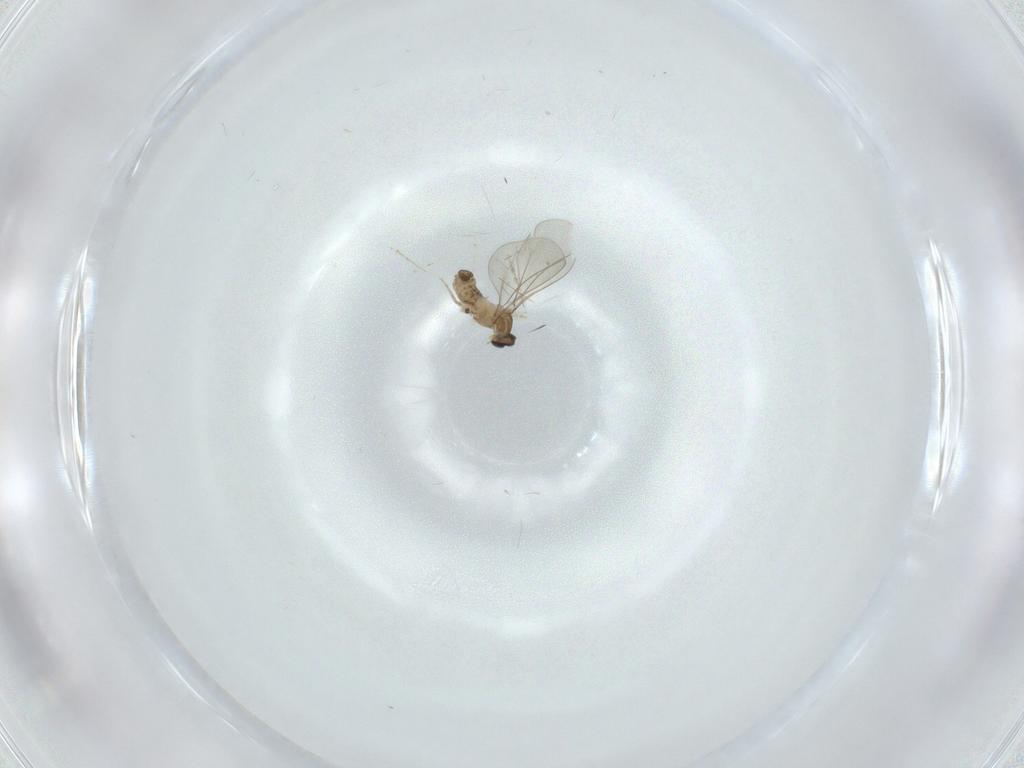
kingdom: Animalia
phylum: Arthropoda
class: Insecta
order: Diptera
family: Cecidomyiidae
